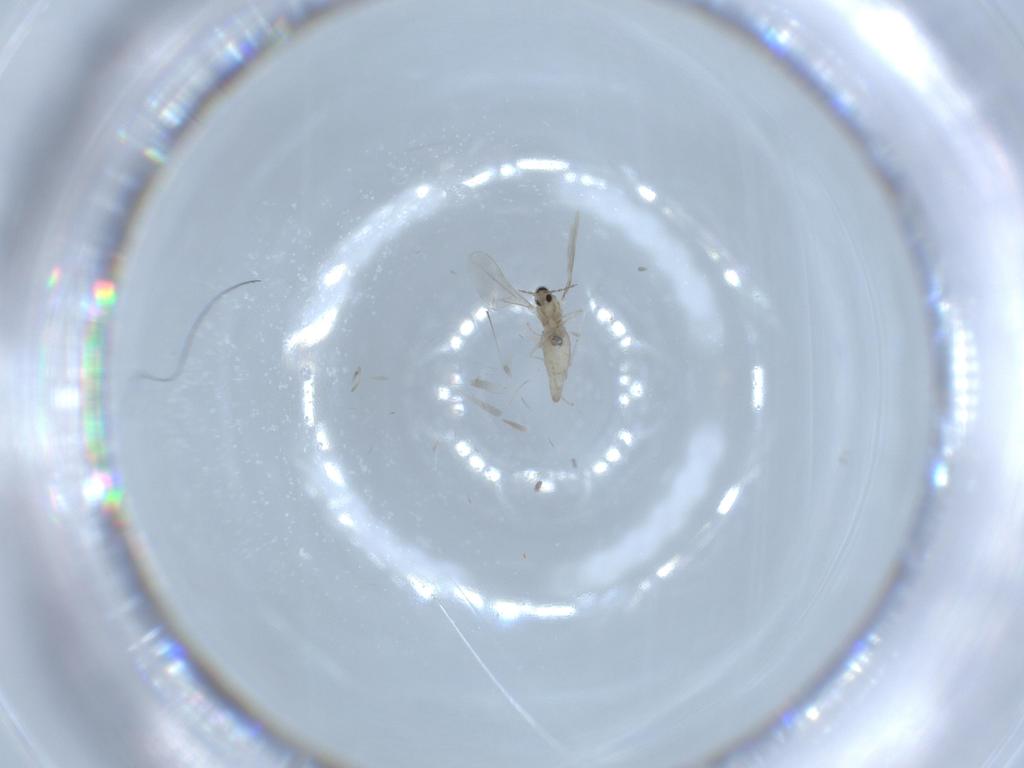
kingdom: Animalia
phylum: Arthropoda
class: Insecta
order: Diptera
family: Cecidomyiidae
